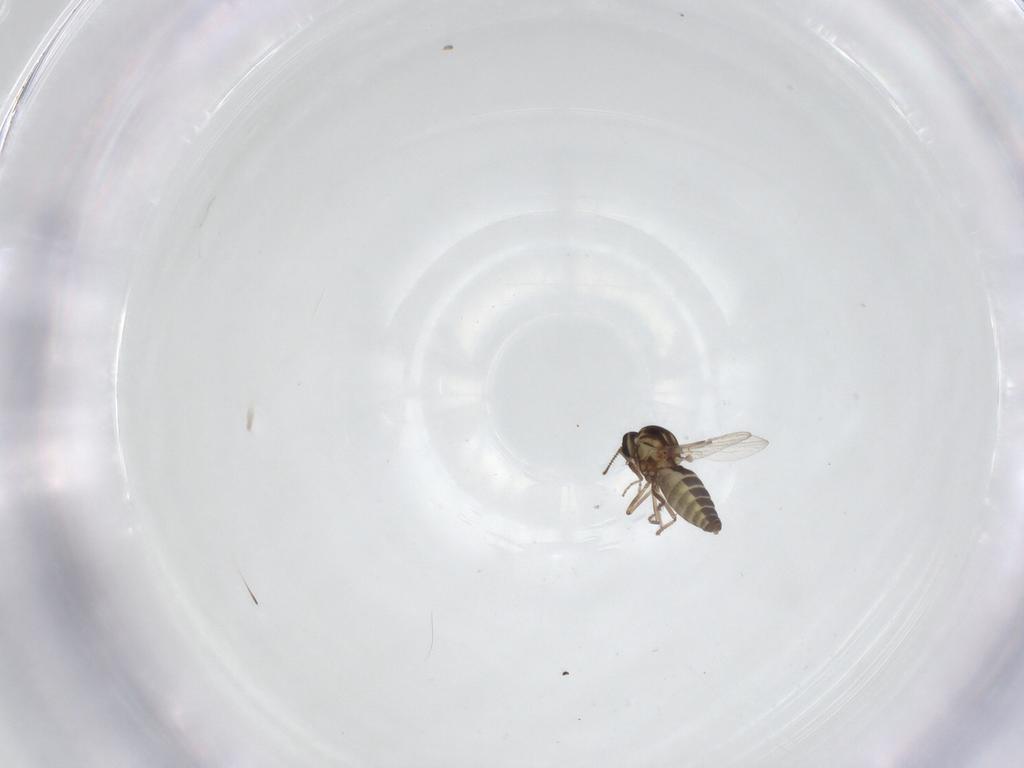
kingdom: Animalia
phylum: Arthropoda
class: Insecta
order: Diptera
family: Ceratopogonidae
